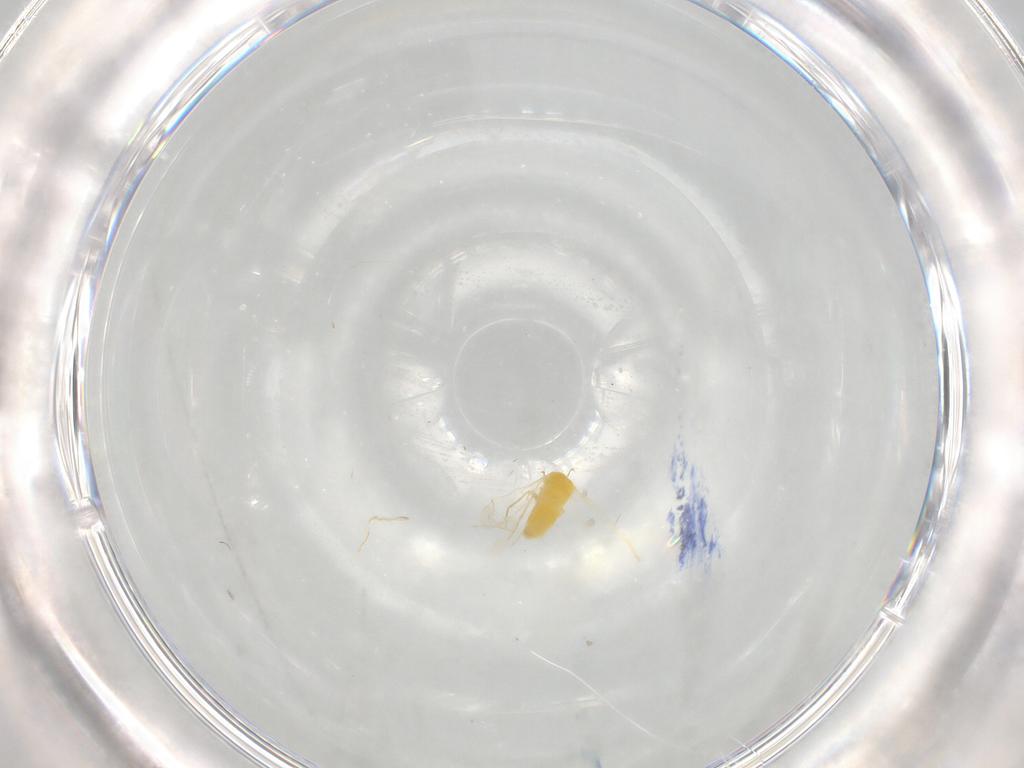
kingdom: Animalia
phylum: Arthropoda
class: Insecta
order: Hemiptera
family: Aleyrodidae
